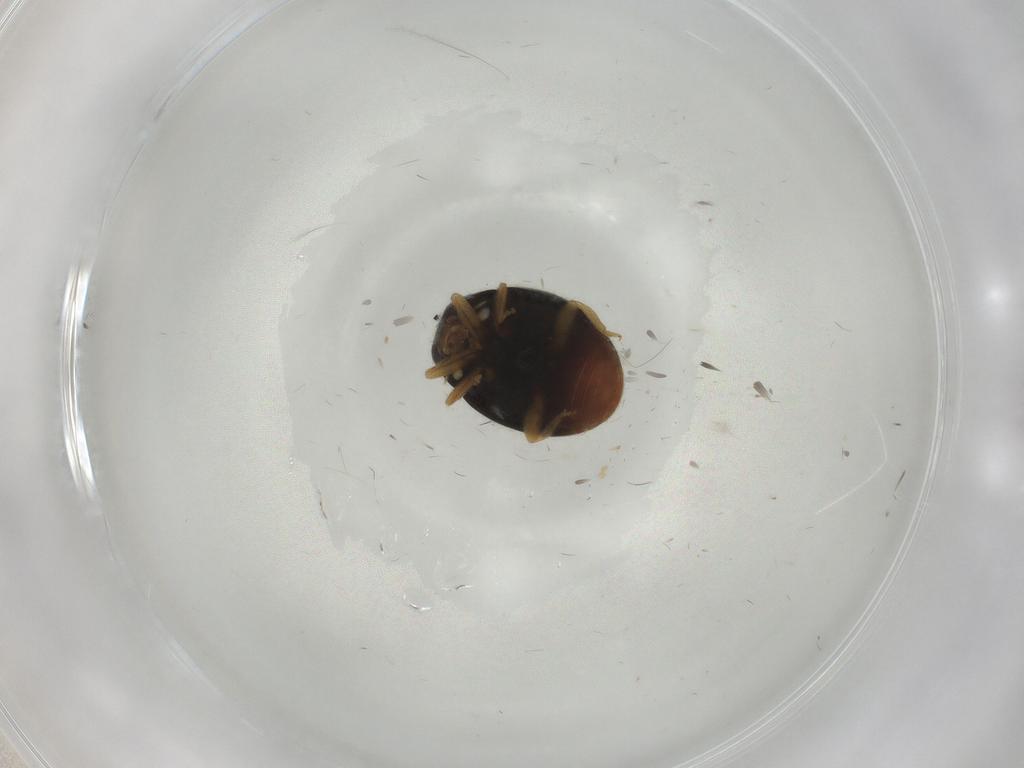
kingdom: Animalia
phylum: Arthropoda
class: Insecta
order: Coleoptera
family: Coccinellidae
